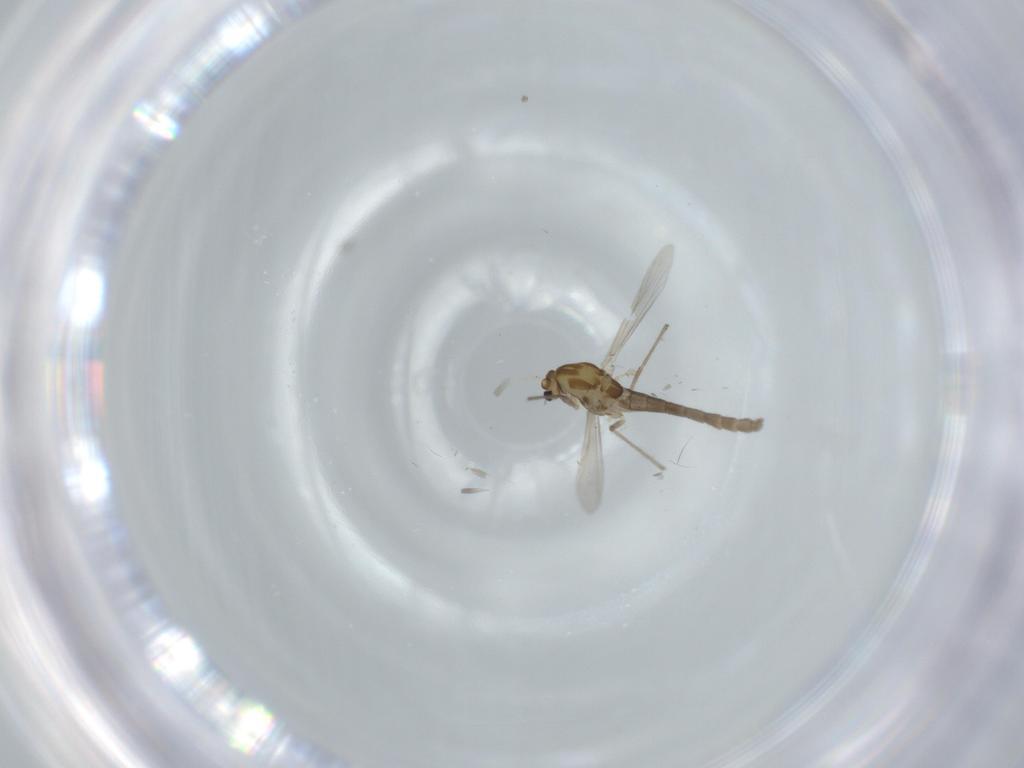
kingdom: Animalia
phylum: Arthropoda
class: Insecta
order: Diptera
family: Chironomidae
